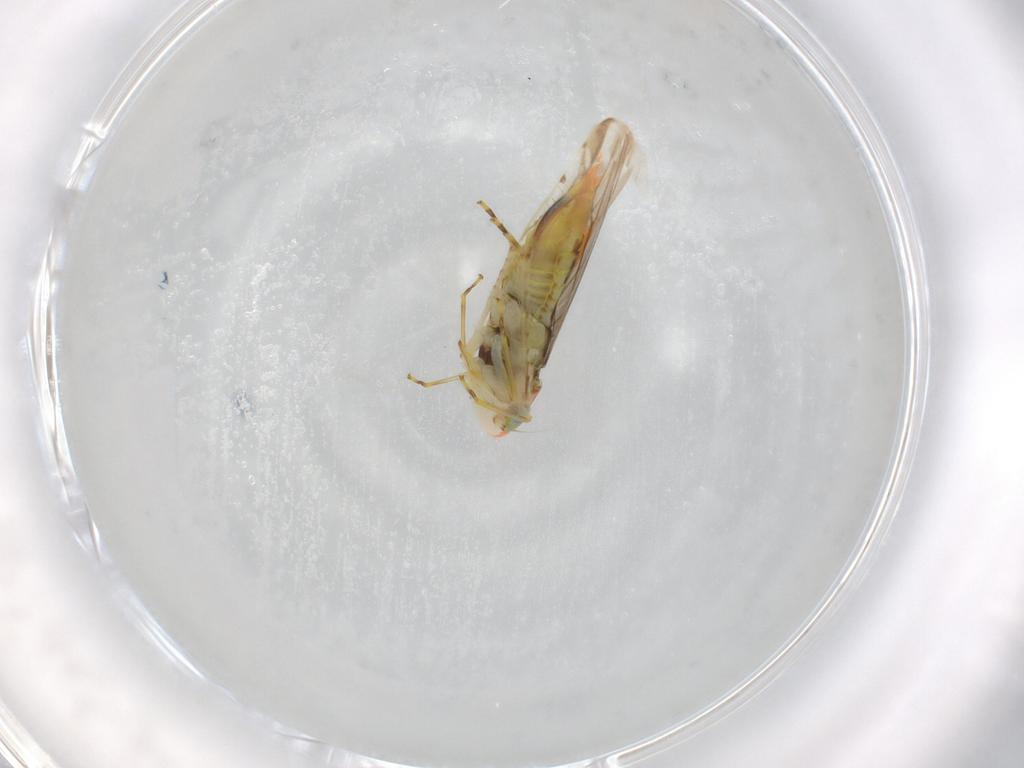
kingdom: Animalia
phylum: Arthropoda
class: Insecta
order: Hemiptera
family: Cicadellidae
